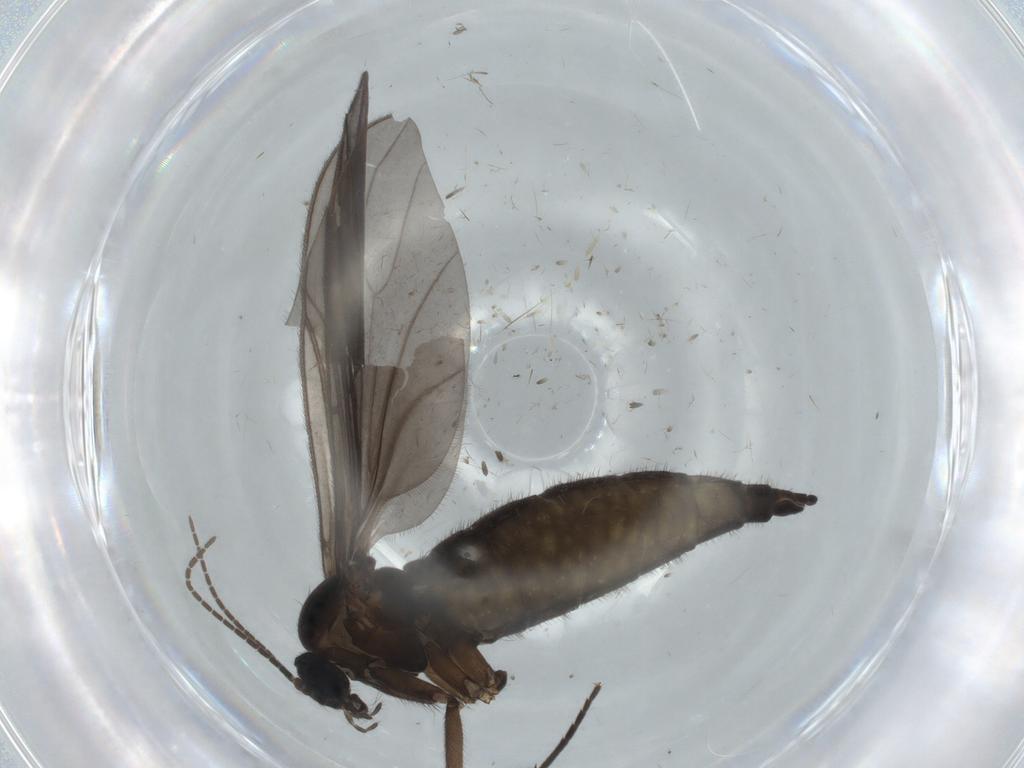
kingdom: Animalia
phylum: Arthropoda
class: Insecta
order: Diptera
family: Sciaridae
